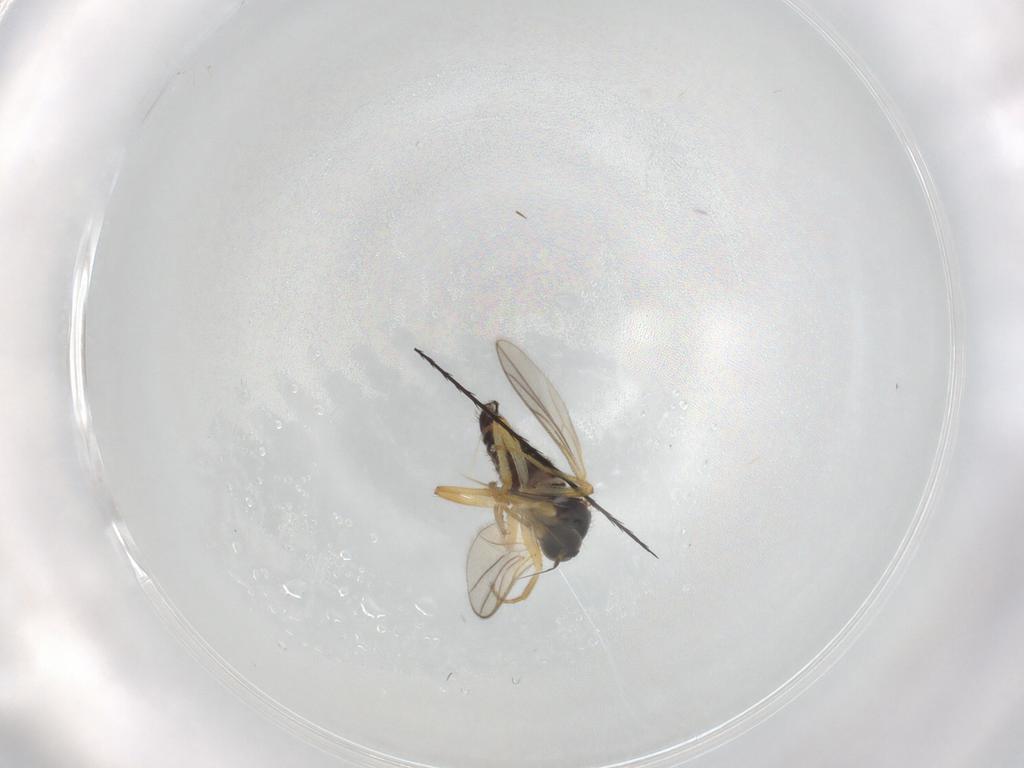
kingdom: Animalia
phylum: Arthropoda
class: Insecta
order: Diptera
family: Hybotidae
